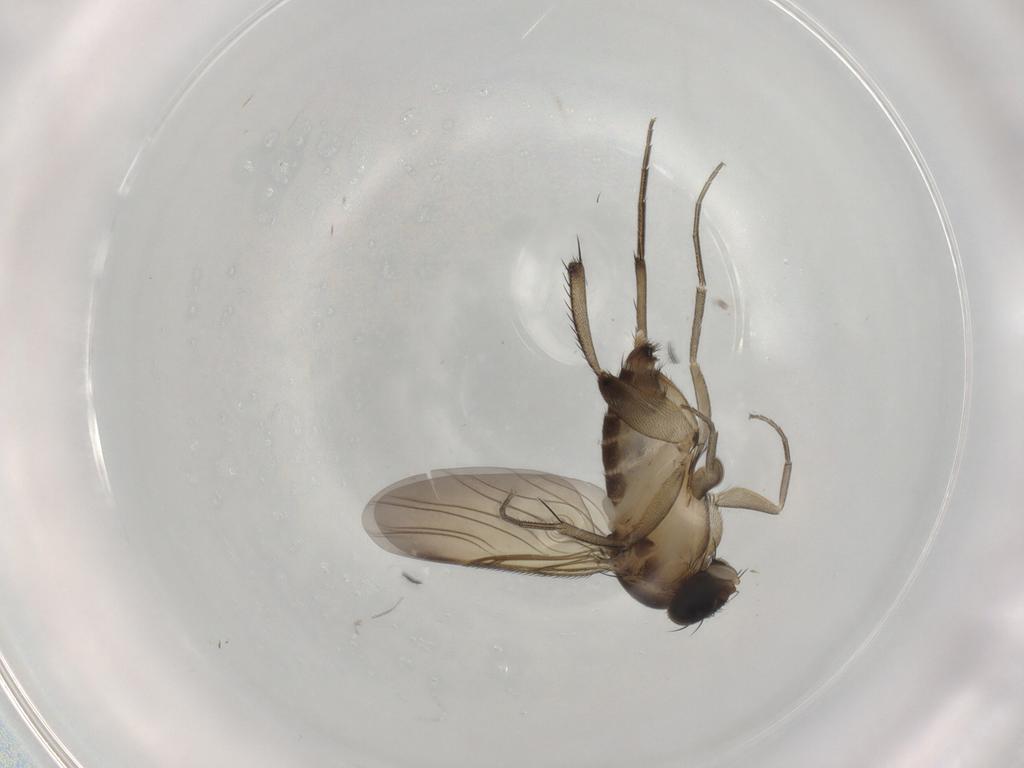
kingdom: Animalia
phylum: Arthropoda
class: Insecta
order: Diptera
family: Phoridae
